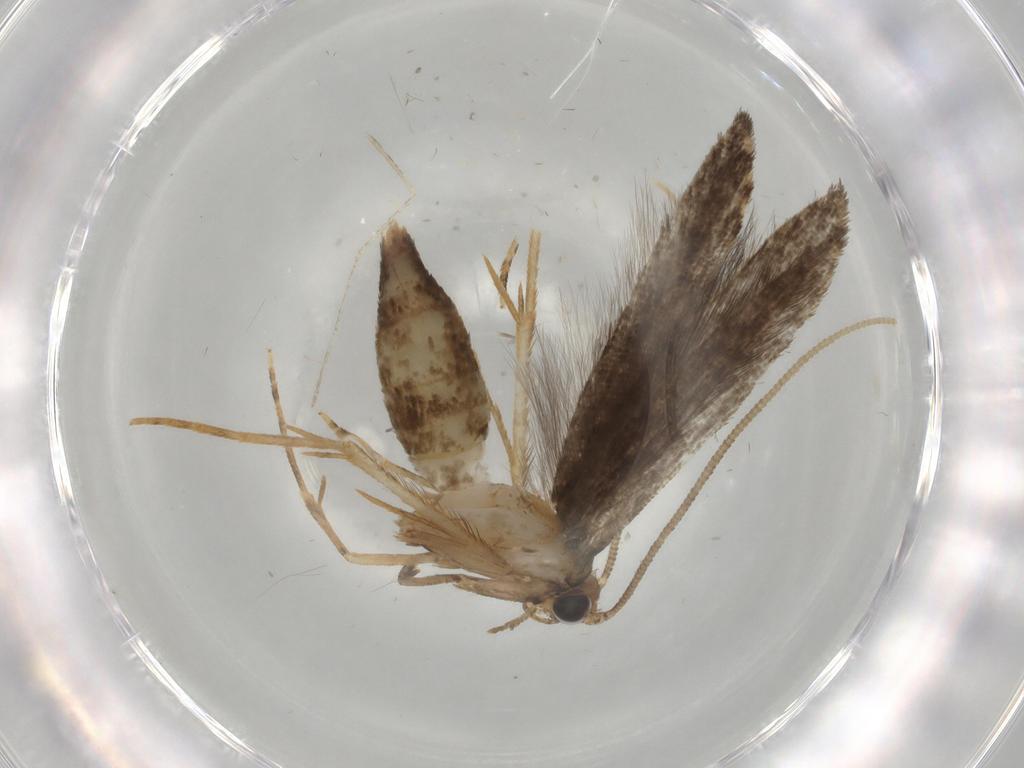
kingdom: Animalia
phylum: Arthropoda
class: Insecta
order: Lepidoptera
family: Tineidae
